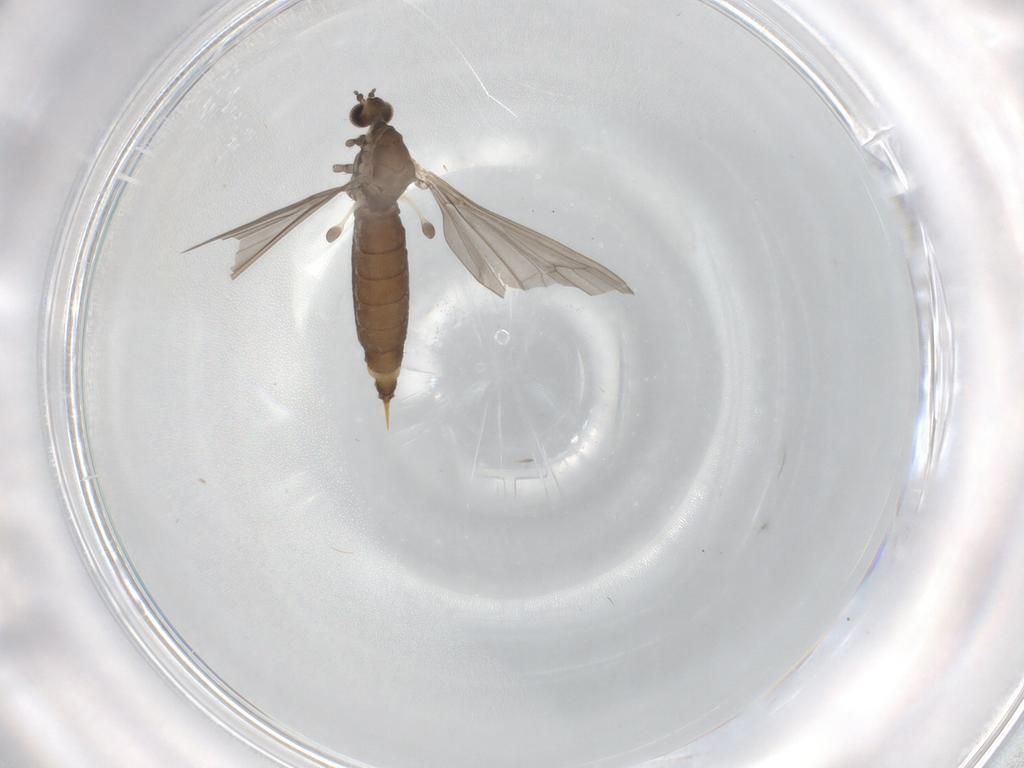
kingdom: Animalia
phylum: Arthropoda
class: Insecta
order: Diptera
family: Limoniidae
